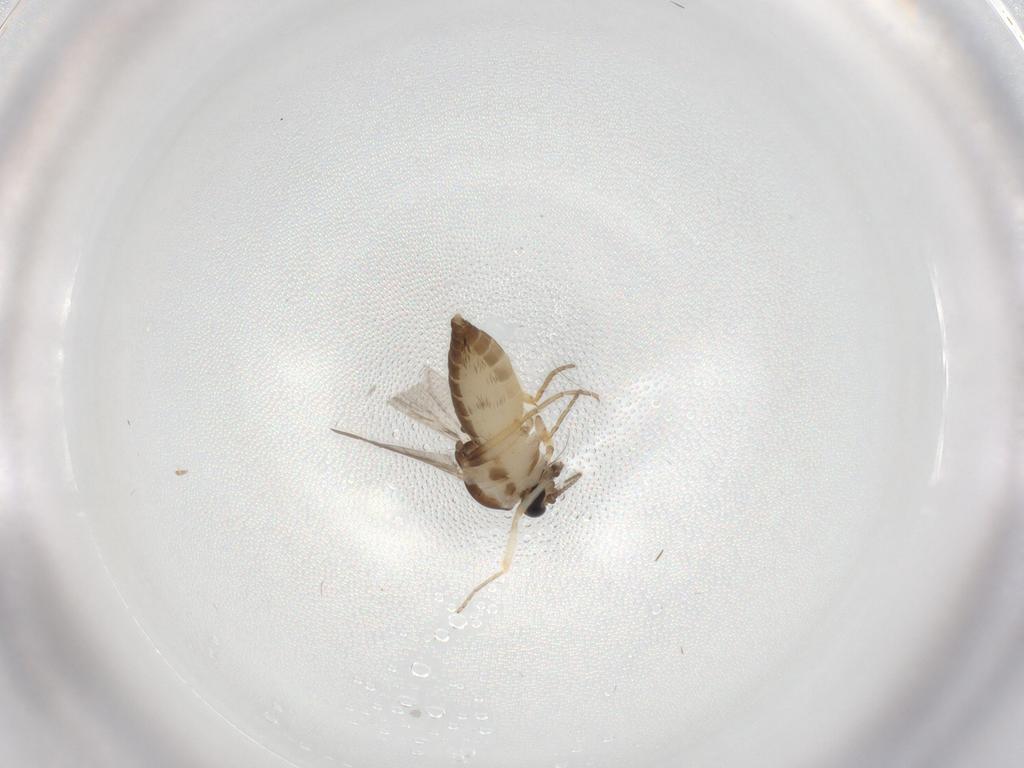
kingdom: Animalia
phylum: Arthropoda
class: Insecta
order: Diptera
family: Ceratopogonidae
